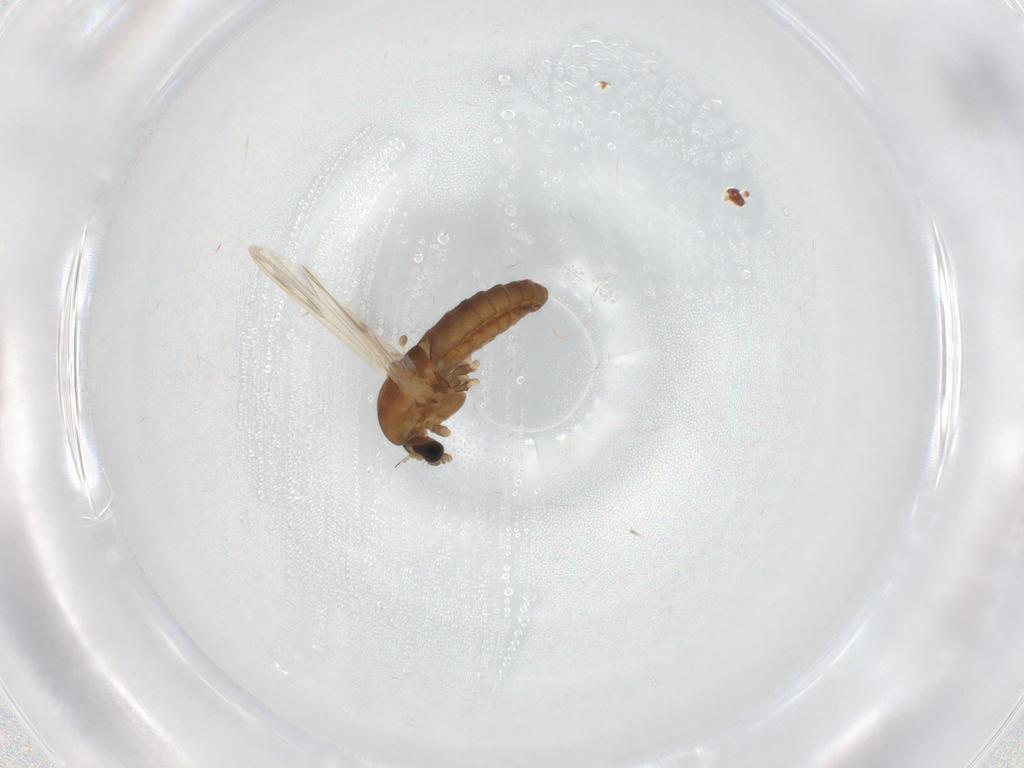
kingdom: Animalia
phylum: Arthropoda
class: Insecta
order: Diptera
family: Chironomidae
